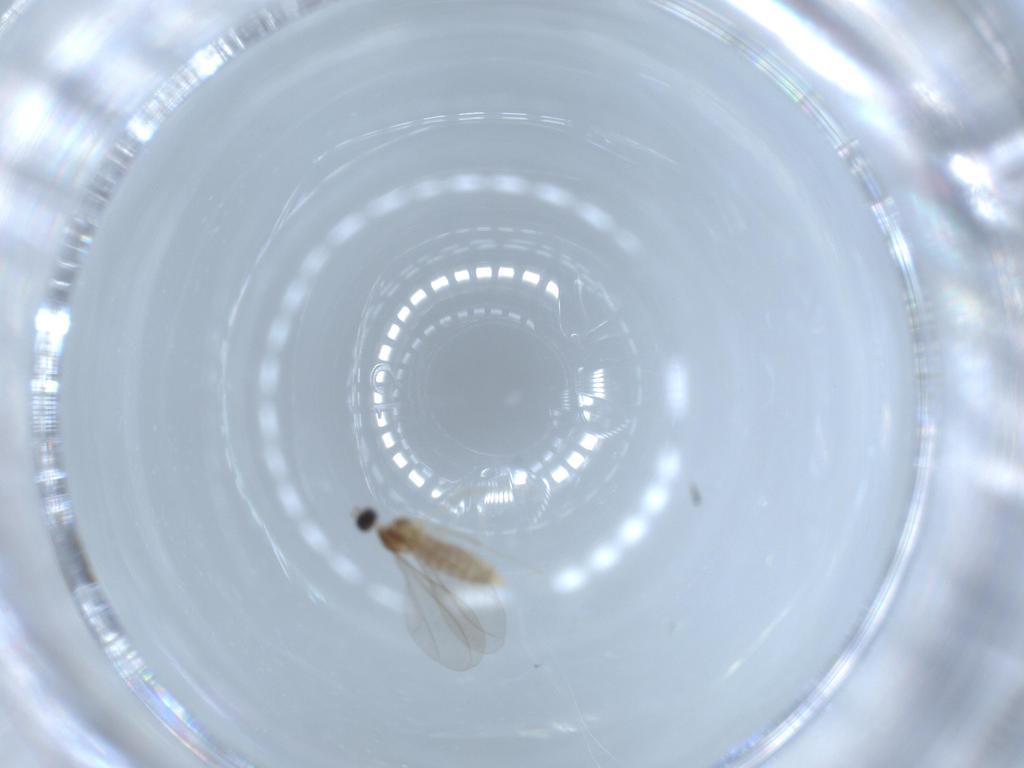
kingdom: Animalia
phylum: Arthropoda
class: Insecta
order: Diptera
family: Cecidomyiidae
